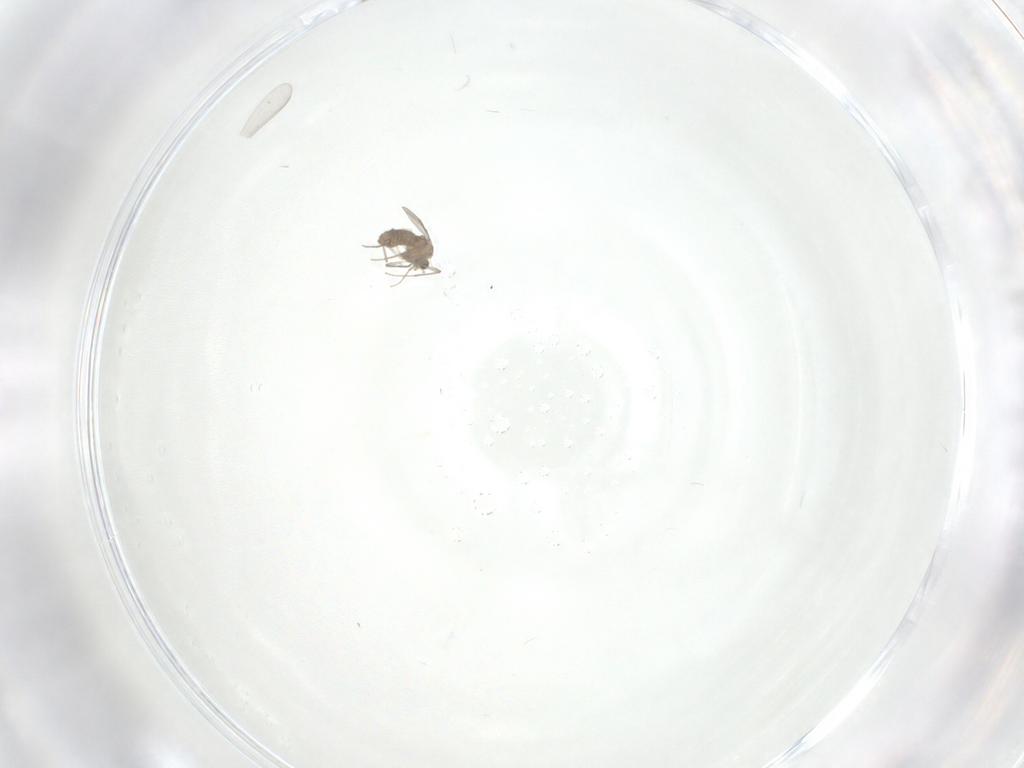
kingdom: Animalia
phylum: Arthropoda
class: Insecta
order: Diptera
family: Chironomidae
